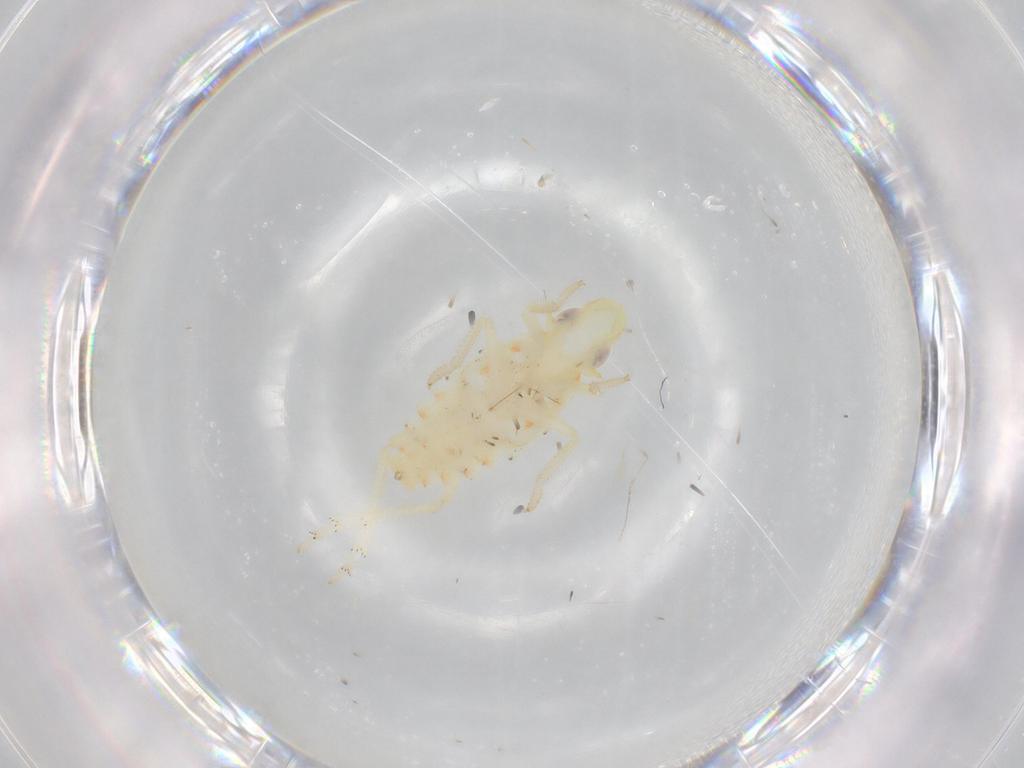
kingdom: Animalia
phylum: Arthropoda
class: Insecta
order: Hemiptera
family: Tropiduchidae
